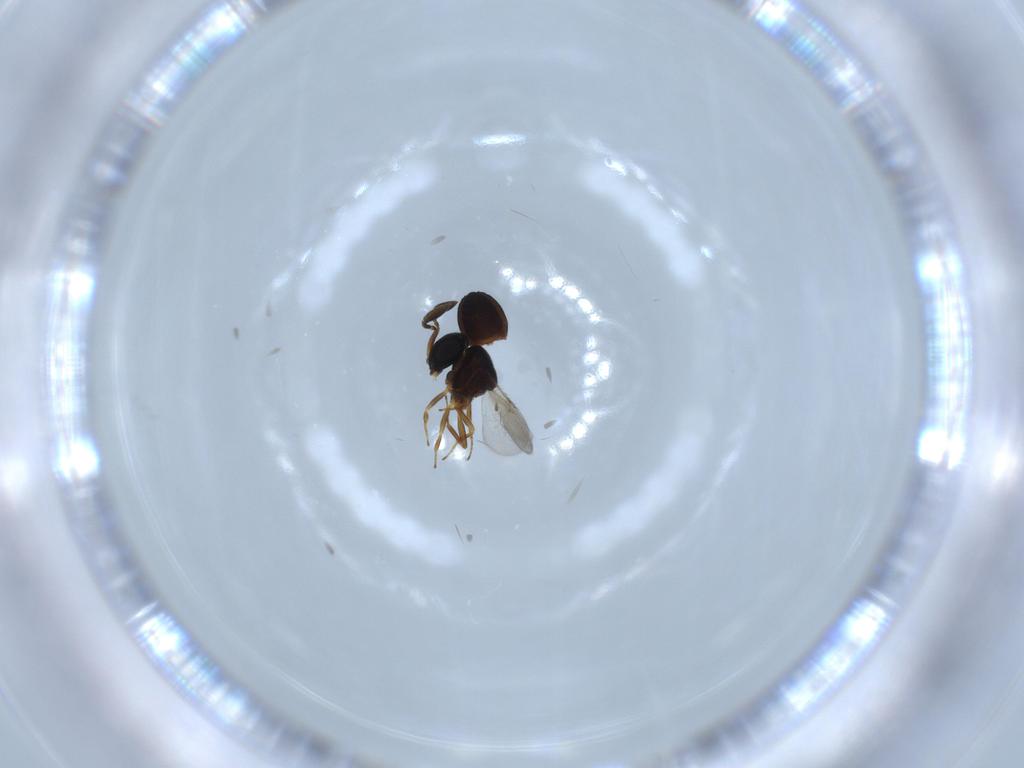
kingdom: Animalia
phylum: Arthropoda
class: Insecta
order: Hymenoptera
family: Scelionidae
